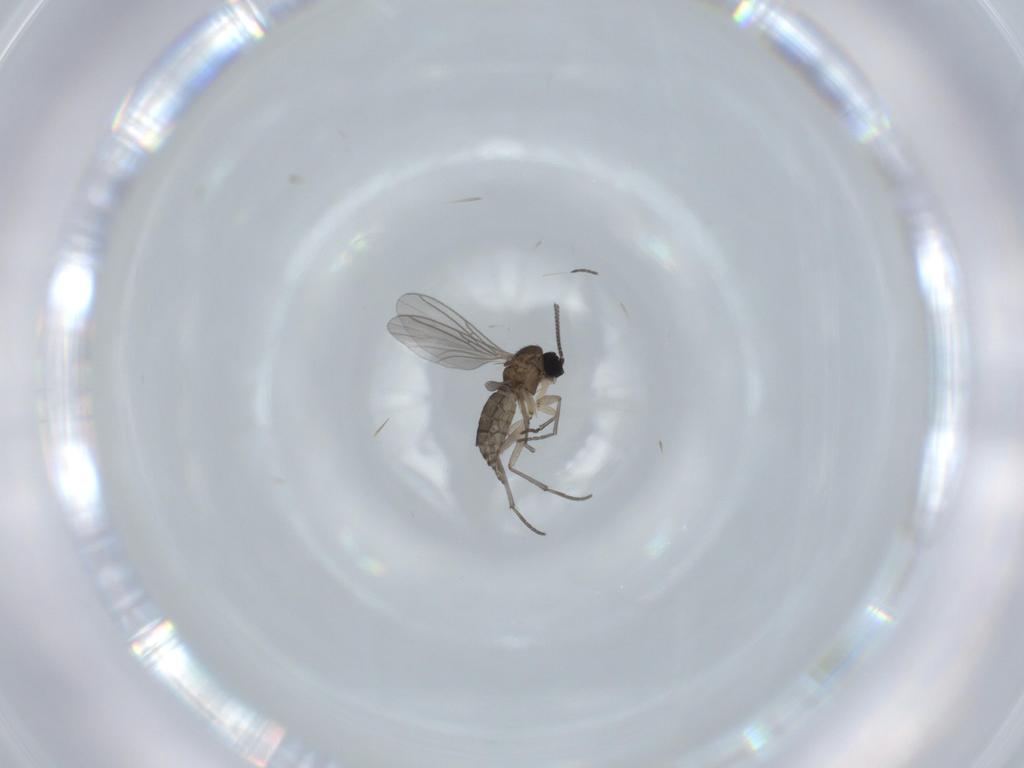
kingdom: Animalia
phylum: Arthropoda
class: Insecta
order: Diptera
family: Sciaridae
